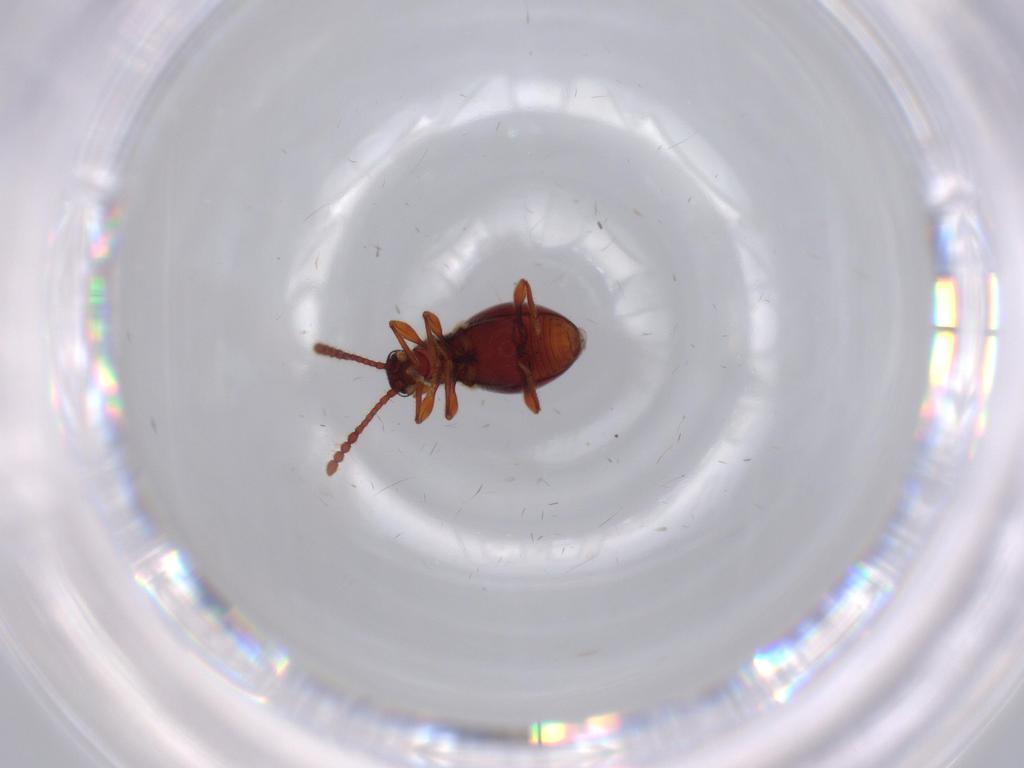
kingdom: Animalia
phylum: Arthropoda
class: Insecta
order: Coleoptera
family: Staphylinidae
